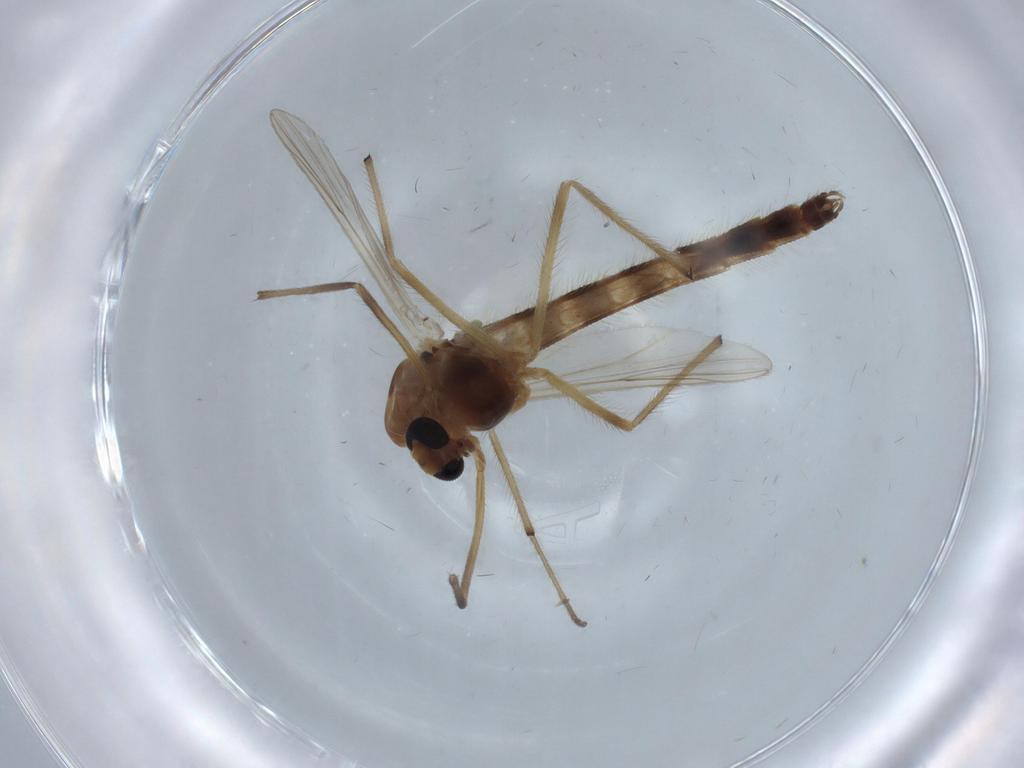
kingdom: Animalia
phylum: Arthropoda
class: Insecta
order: Diptera
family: Chironomidae
